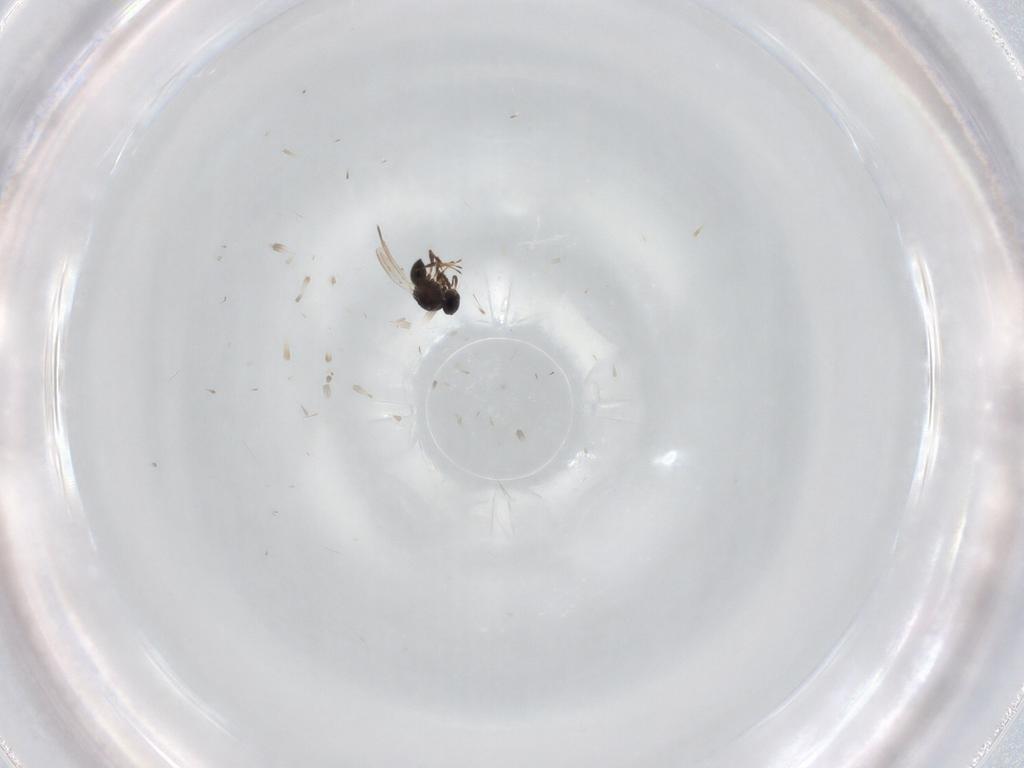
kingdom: Animalia
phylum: Arthropoda
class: Insecta
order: Hymenoptera
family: Platygastridae
